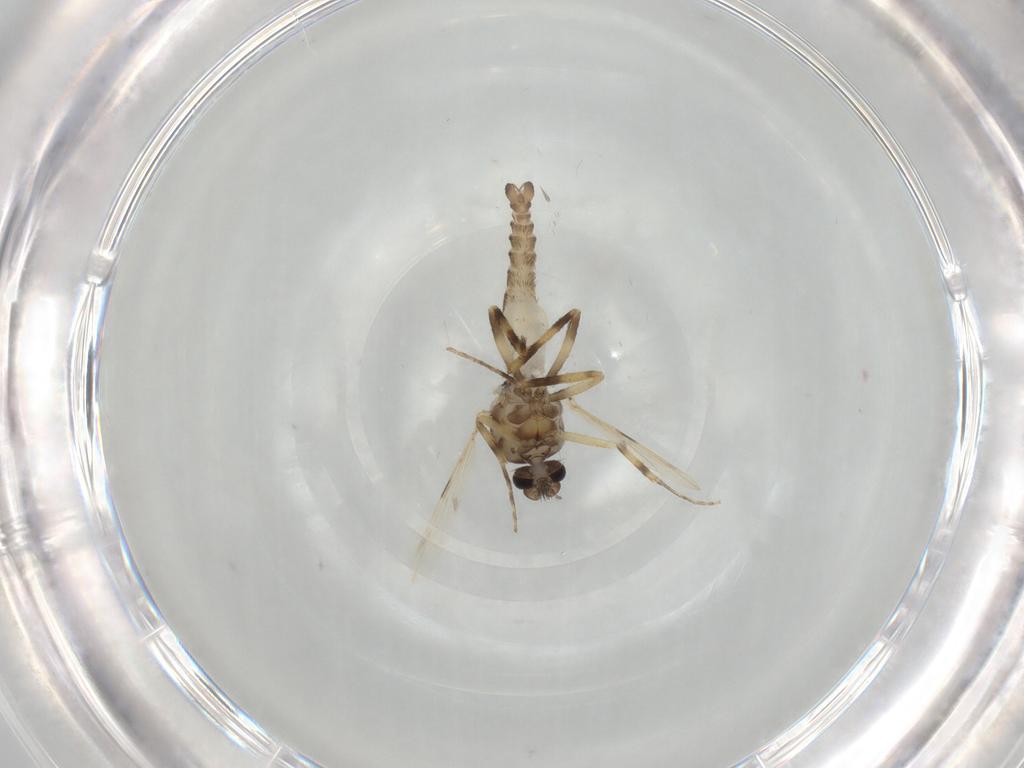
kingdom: Animalia
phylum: Arthropoda
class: Insecta
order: Diptera
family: Ceratopogonidae
